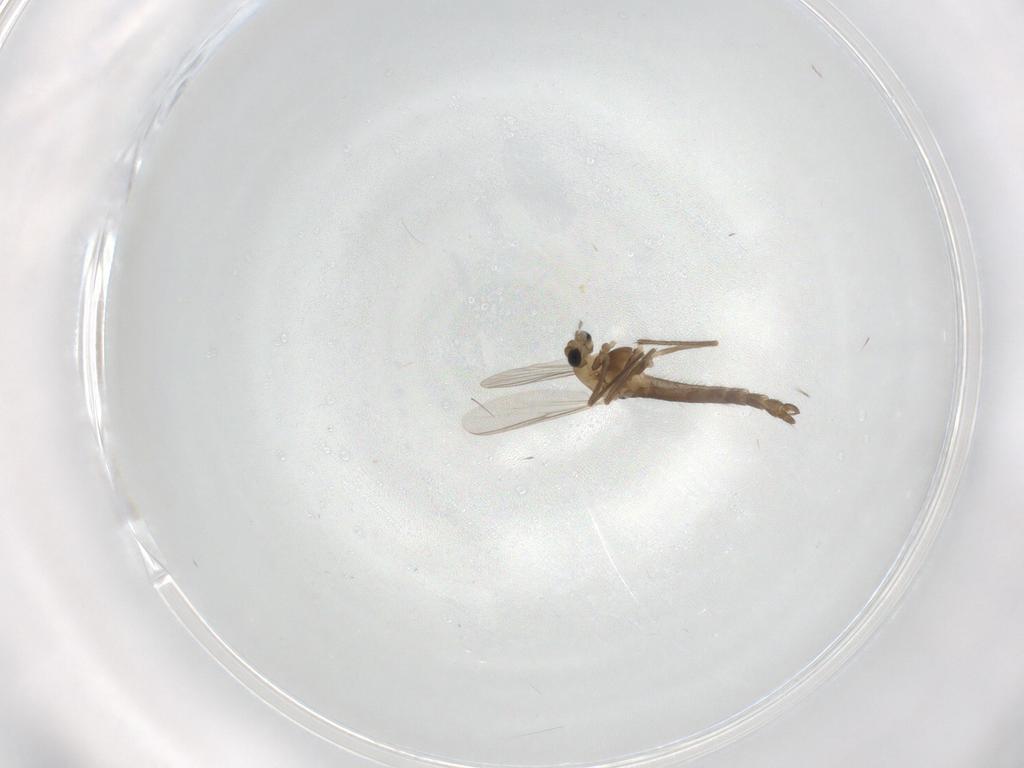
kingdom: Animalia
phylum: Arthropoda
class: Insecta
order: Diptera
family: Chironomidae
